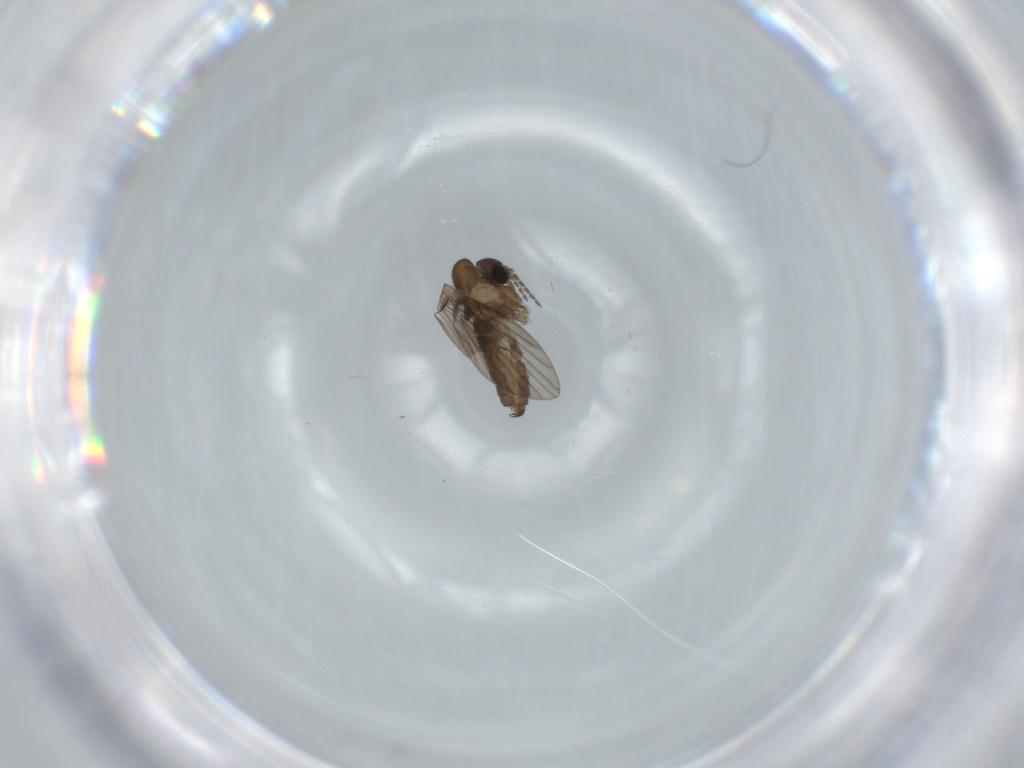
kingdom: Animalia
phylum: Arthropoda
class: Insecta
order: Diptera
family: Psychodidae
